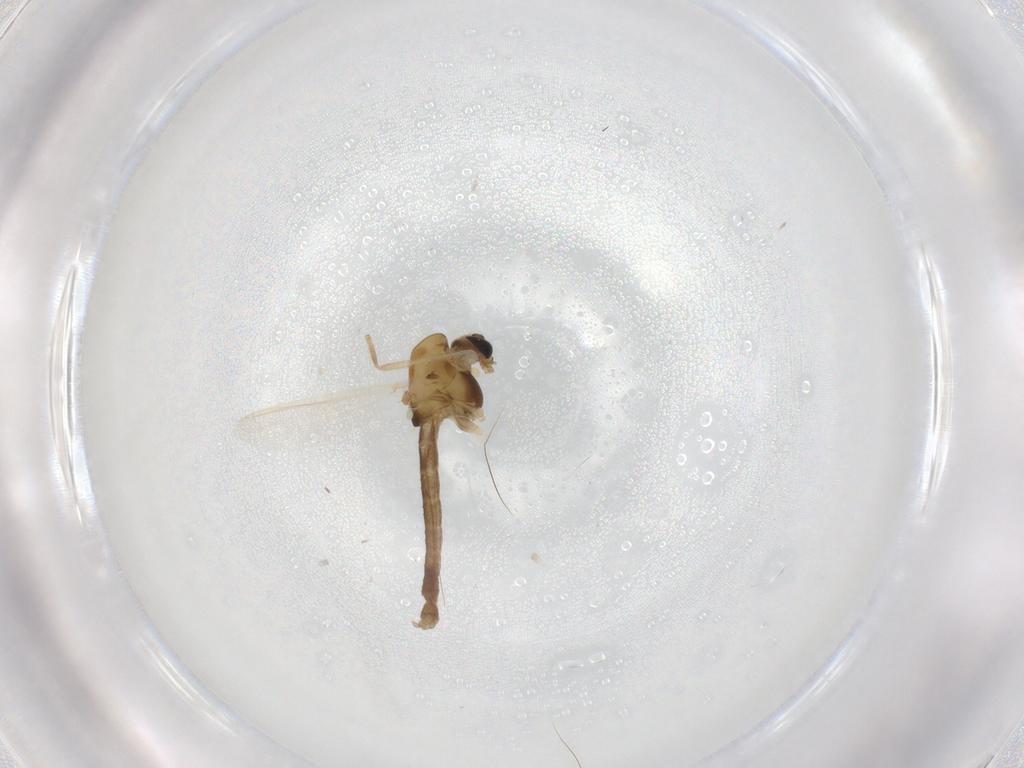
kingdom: Animalia
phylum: Arthropoda
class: Insecta
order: Diptera
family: Chironomidae
